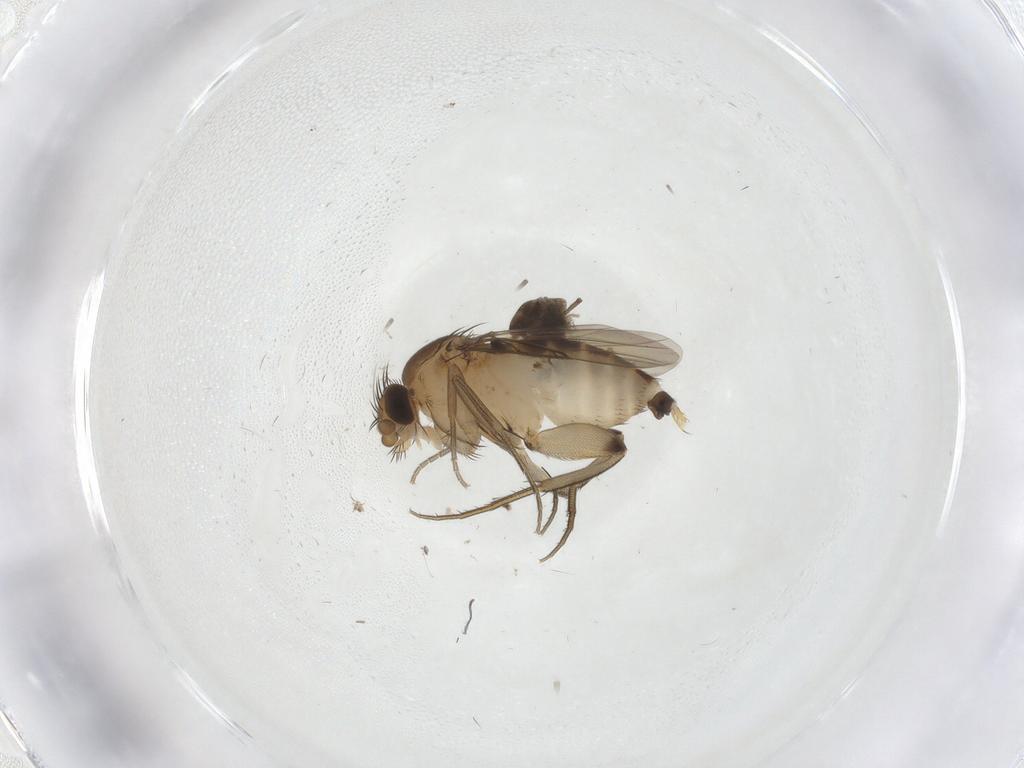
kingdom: Animalia
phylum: Arthropoda
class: Insecta
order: Diptera
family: Phoridae
